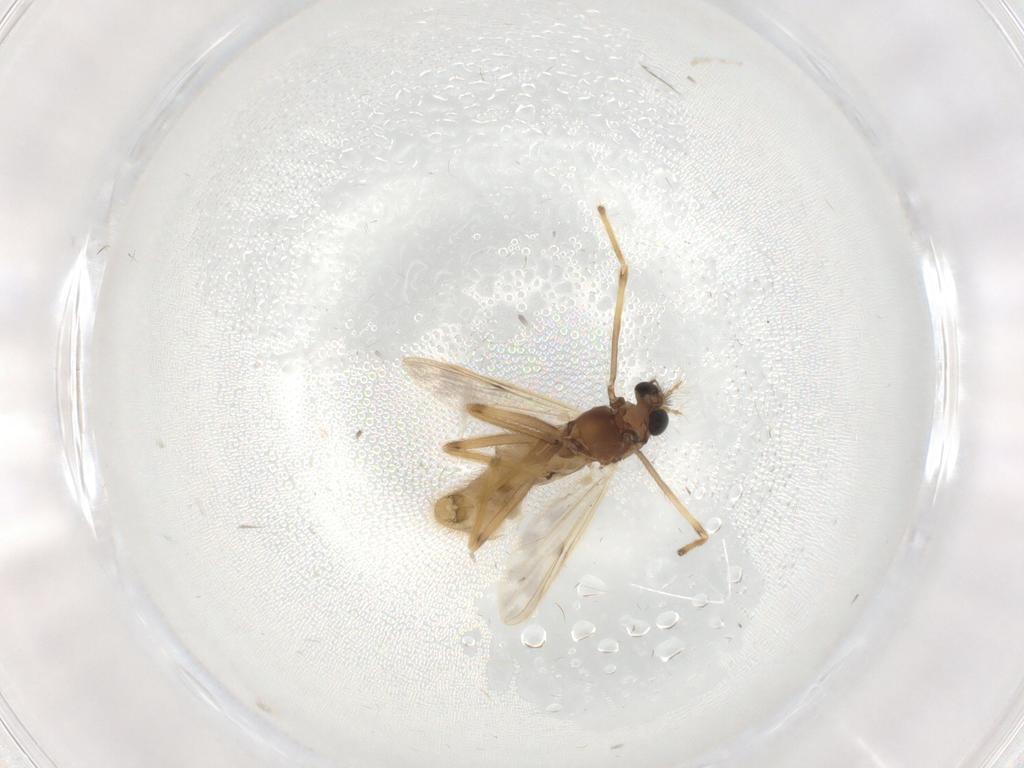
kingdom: Animalia
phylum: Arthropoda
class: Insecta
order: Diptera
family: Chironomidae
